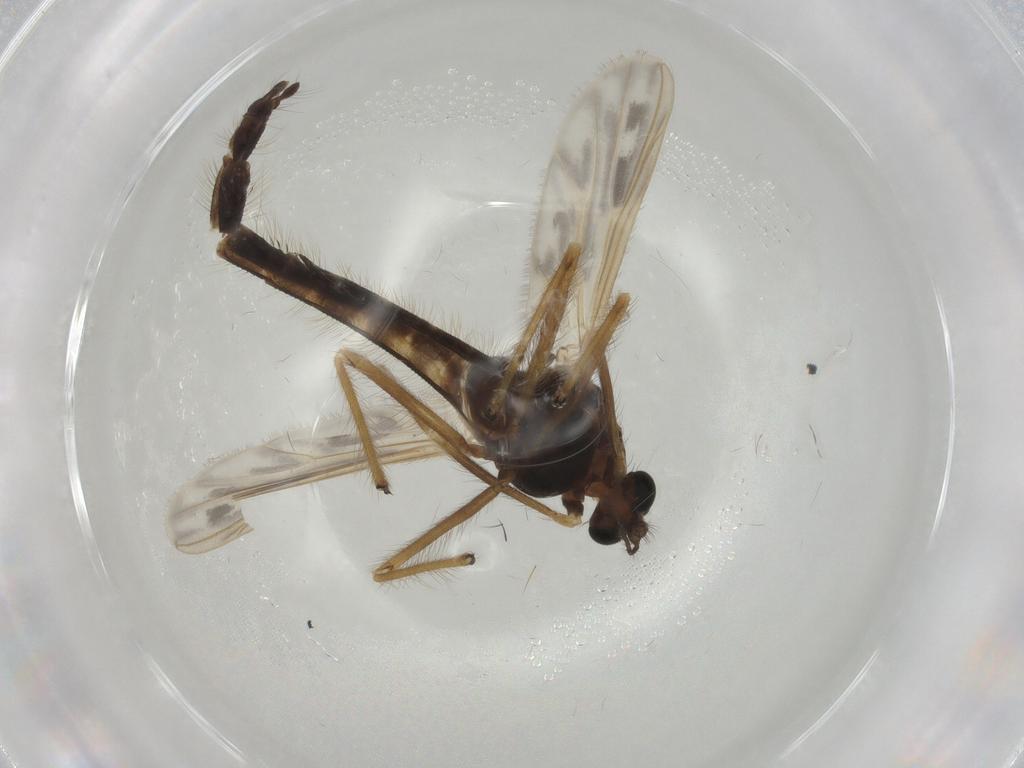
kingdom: Animalia
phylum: Arthropoda
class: Insecta
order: Diptera
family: Chironomidae
